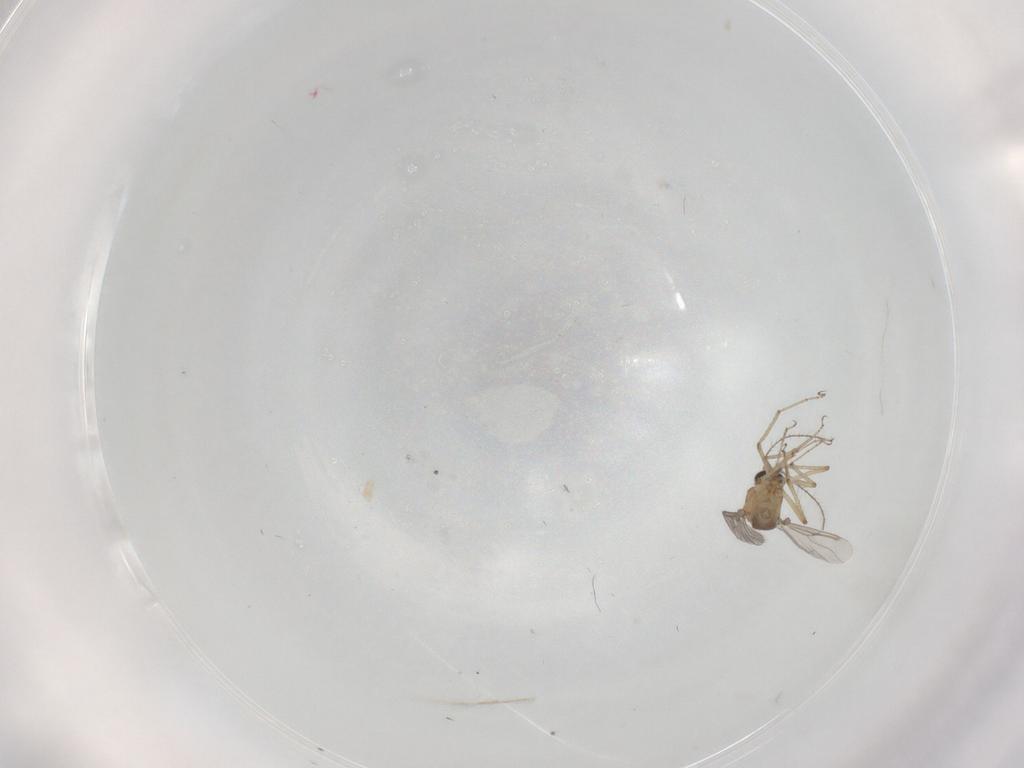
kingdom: Animalia
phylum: Arthropoda
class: Insecta
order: Diptera
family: Ceratopogonidae
